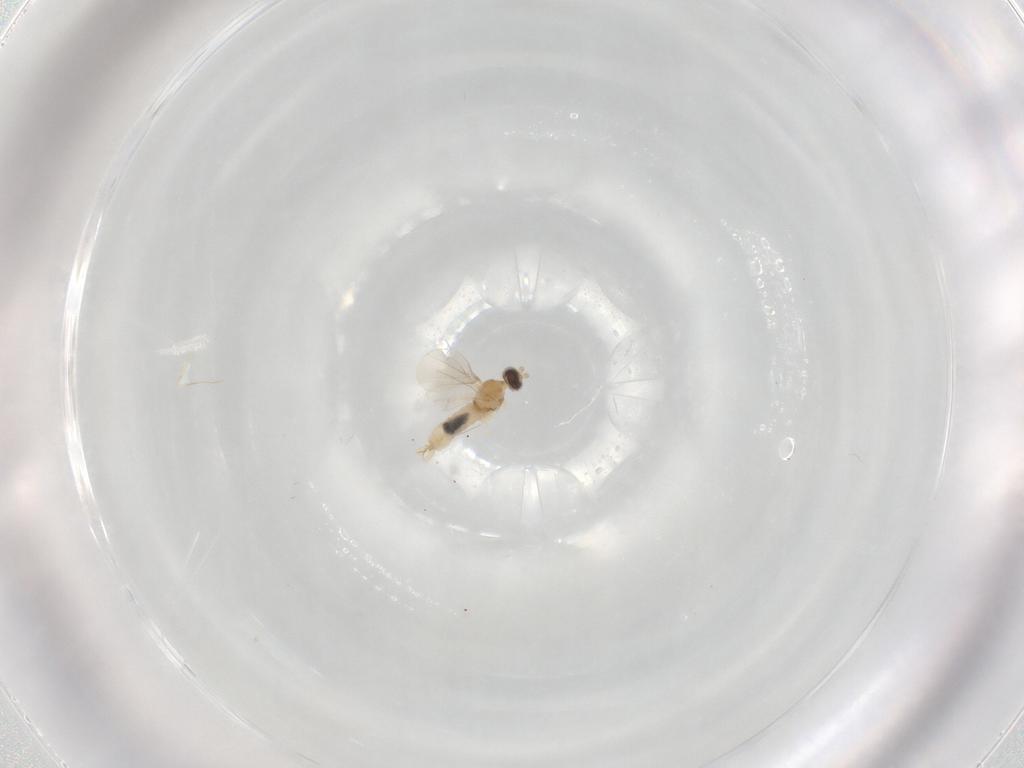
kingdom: Animalia
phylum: Arthropoda
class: Insecta
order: Diptera
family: Cecidomyiidae
